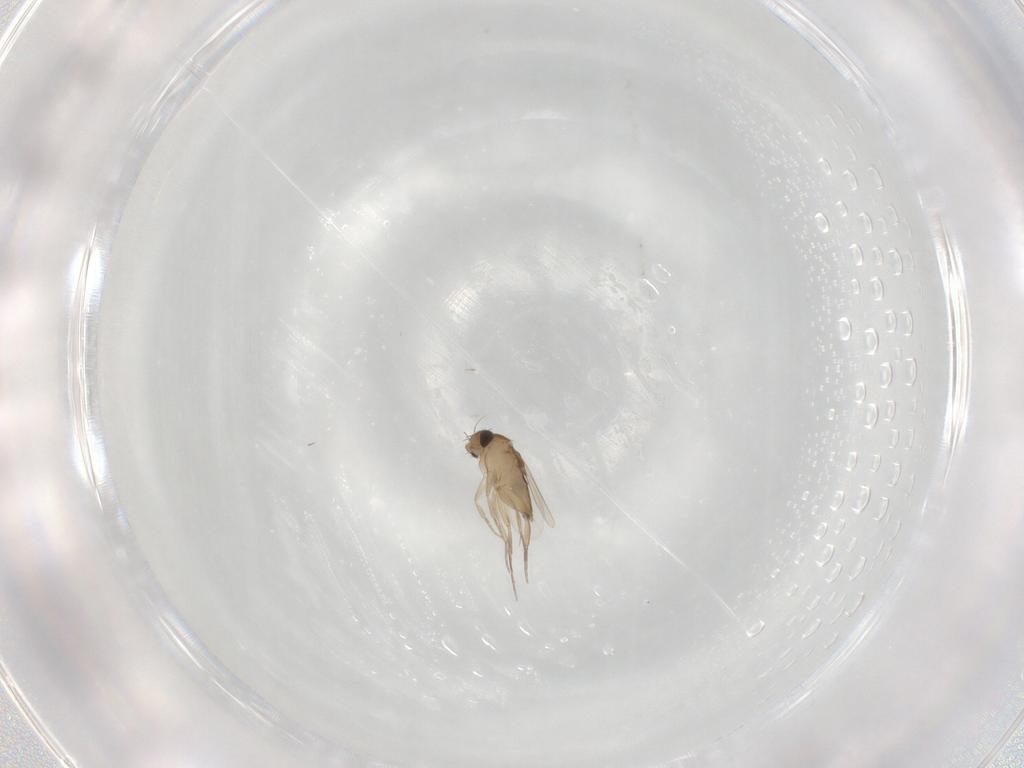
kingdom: Animalia
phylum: Arthropoda
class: Insecta
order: Diptera
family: Phoridae
